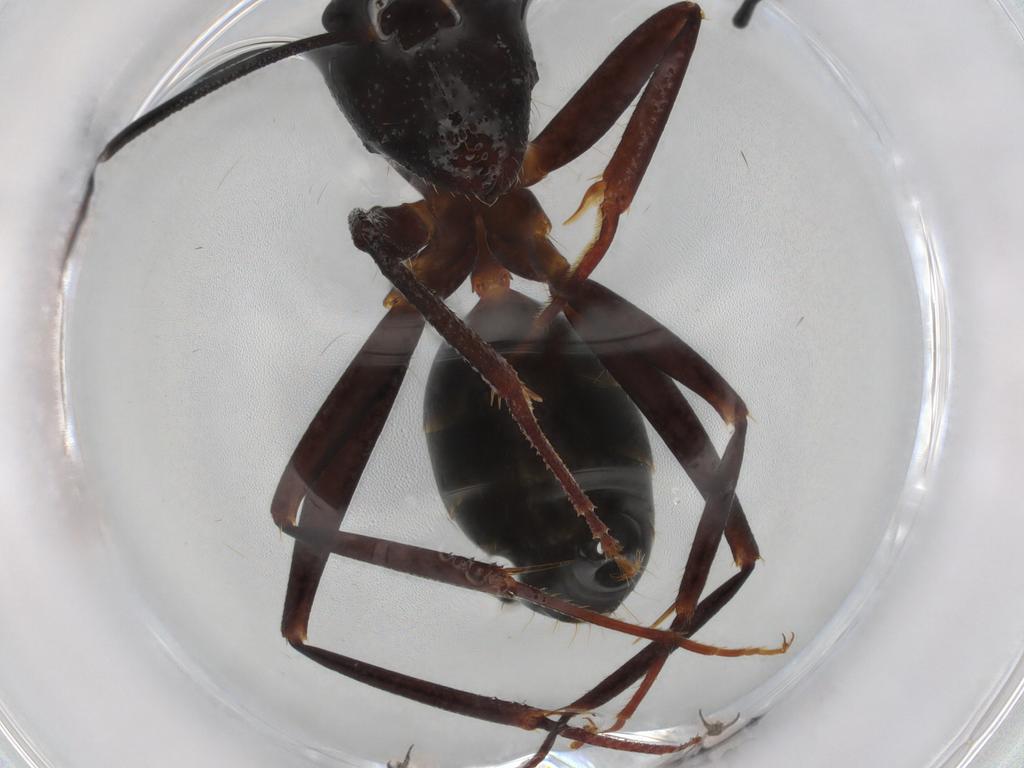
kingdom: Animalia
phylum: Arthropoda
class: Insecta
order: Hymenoptera
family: Formicidae
